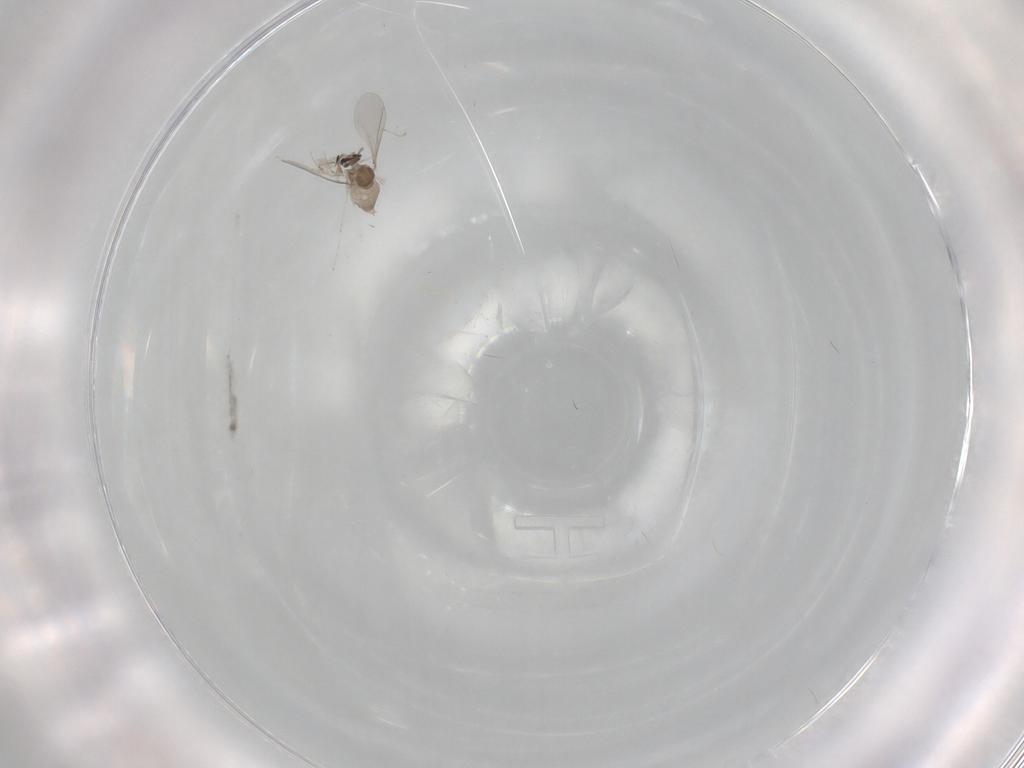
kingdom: Animalia
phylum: Arthropoda
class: Insecta
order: Diptera
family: Cecidomyiidae
